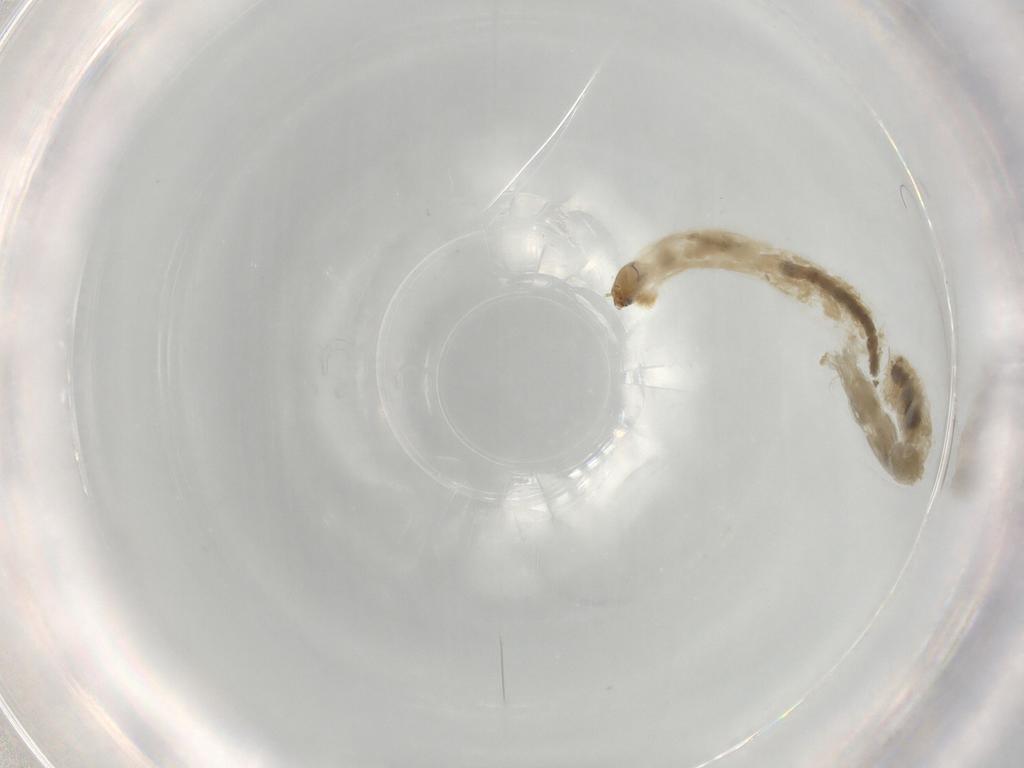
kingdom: Animalia
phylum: Arthropoda
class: Insecta
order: Diptera
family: Chironomidae
